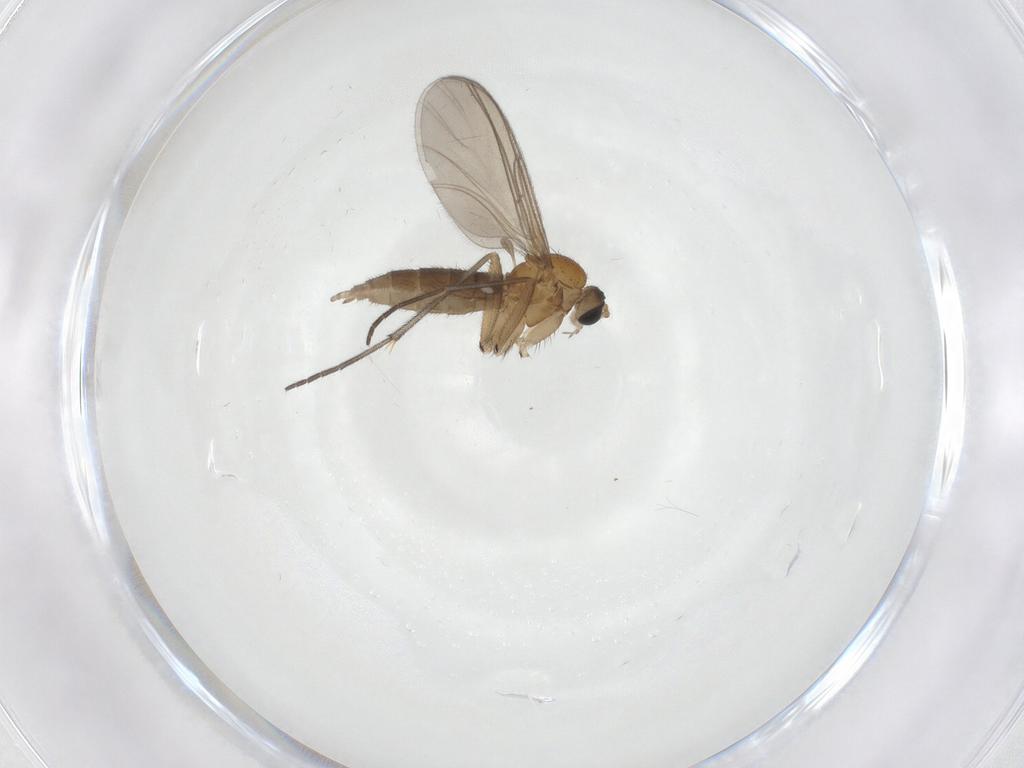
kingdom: Animalia
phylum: Arthropoda
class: Insecta
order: Diptera
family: Sciaridae
